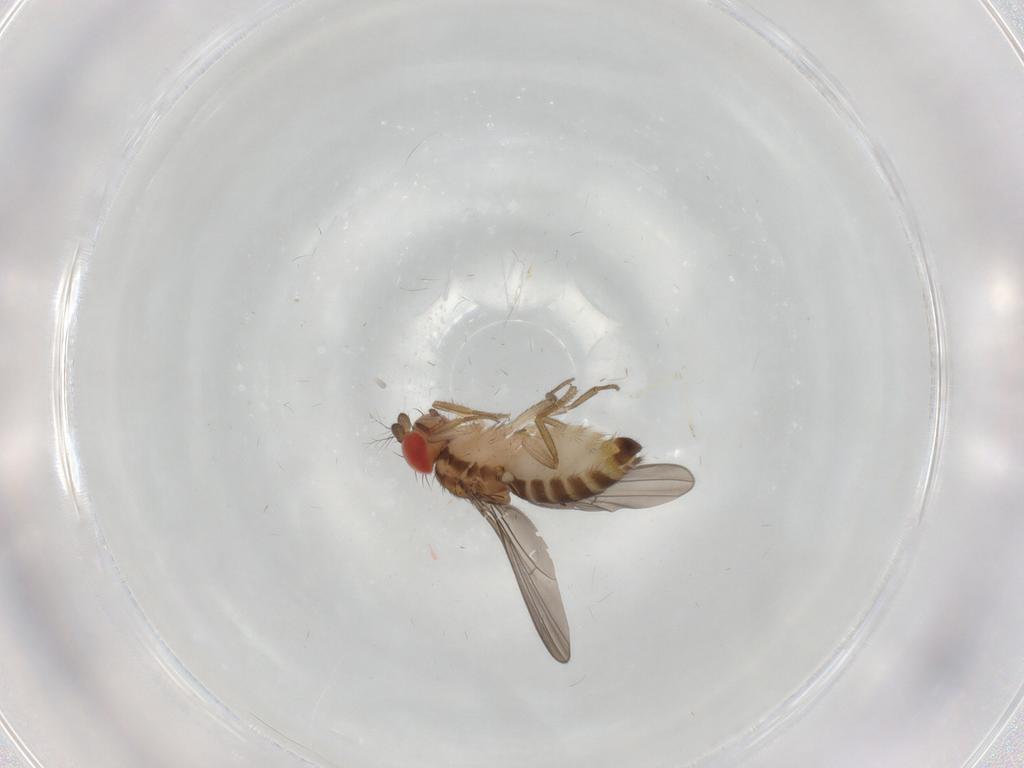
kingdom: Animalia
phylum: Arthropoda
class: Insecta
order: Diptera
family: Drosophilidae
